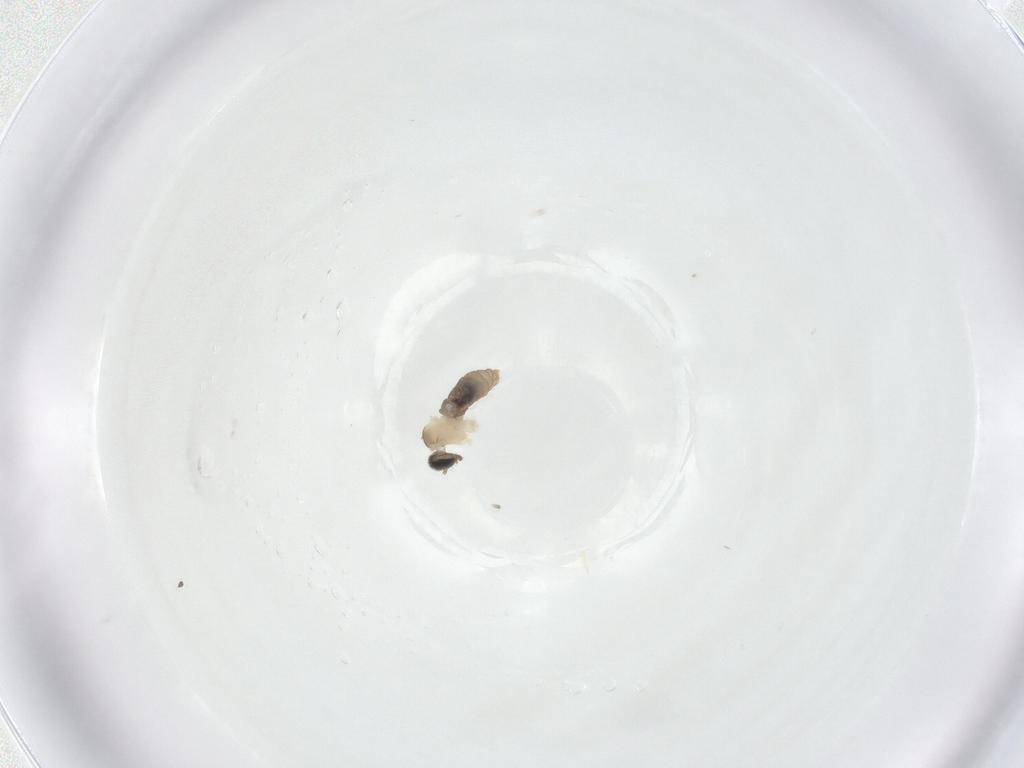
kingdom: Animalia
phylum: Arthropoda
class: Insecta
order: Diptera
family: Cecidomyiidae
